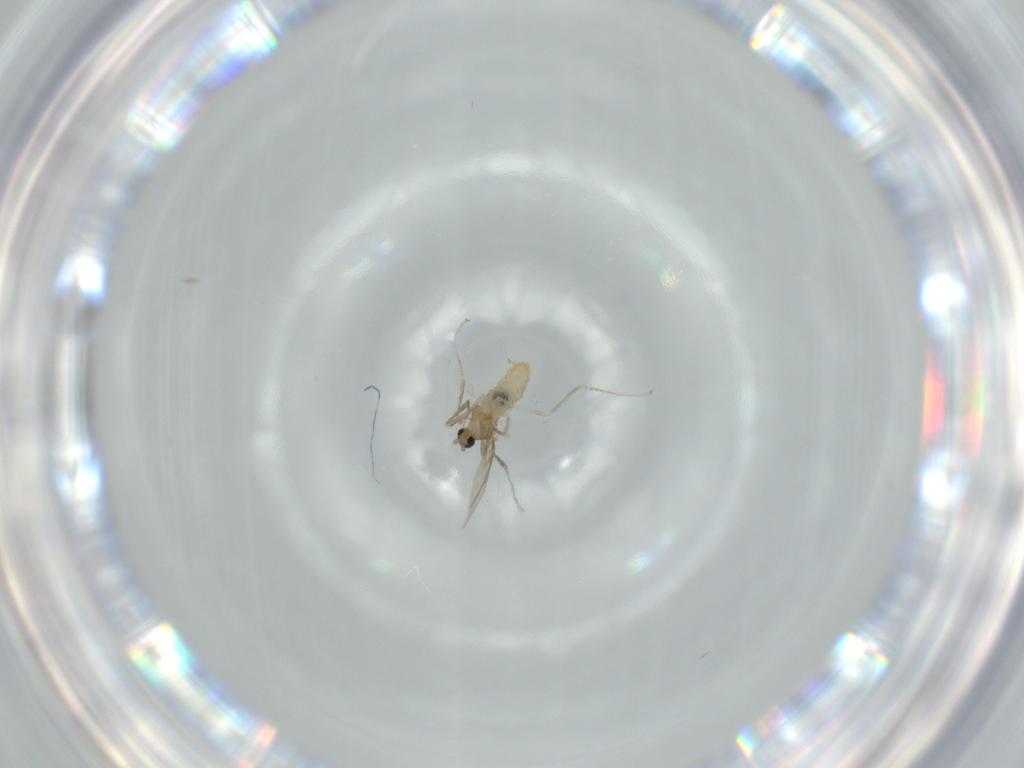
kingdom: Animalia
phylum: Arthropoda
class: Insecta
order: Diptera
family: Cecidomyiidae
